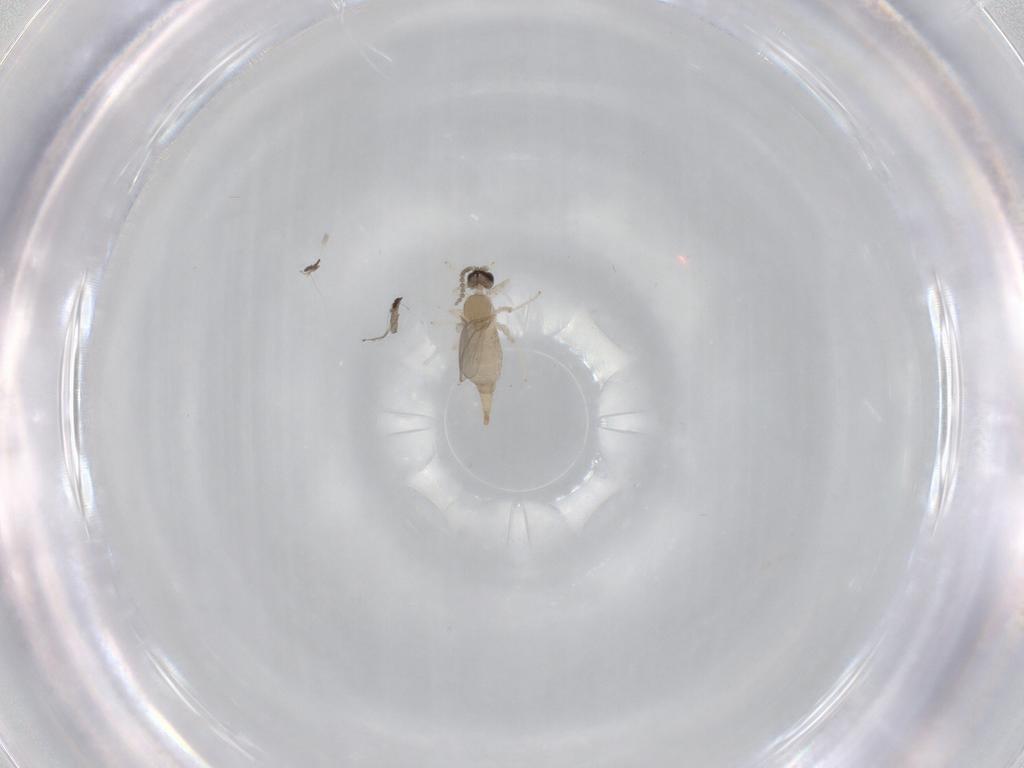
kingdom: Animalia
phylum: Arthropoda
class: Insecta
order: Diptera
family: Cecidomyiidae
